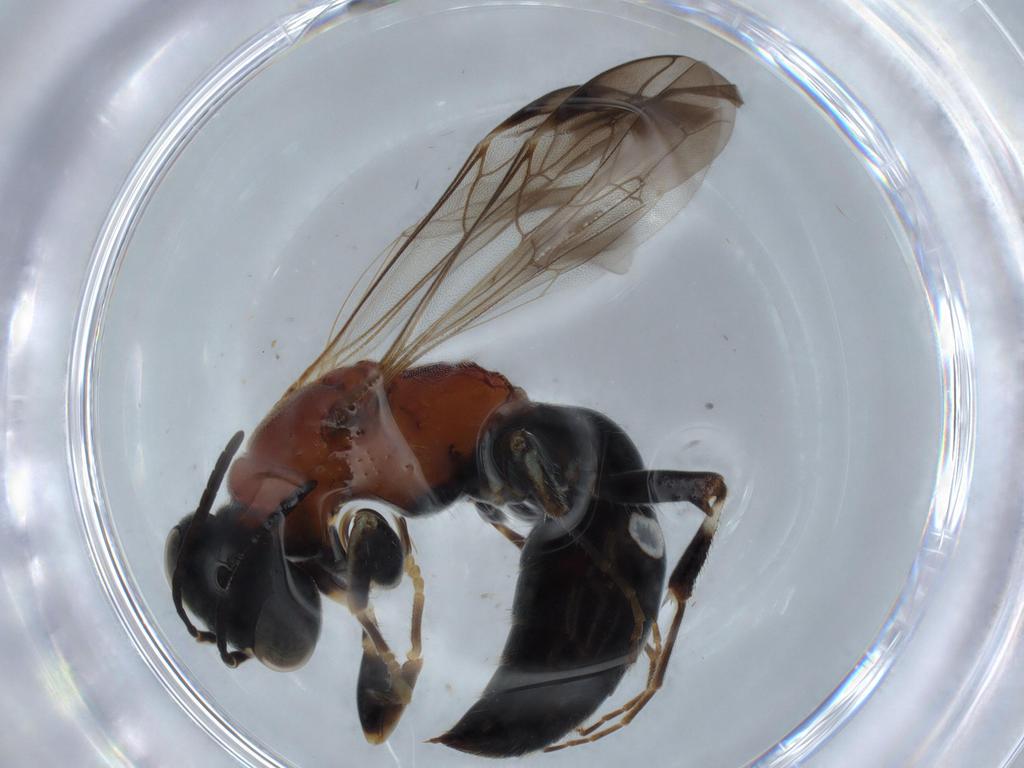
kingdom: Animalia
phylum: Arthropoda
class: Insecta
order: Hymenoptera
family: Bembicidae
